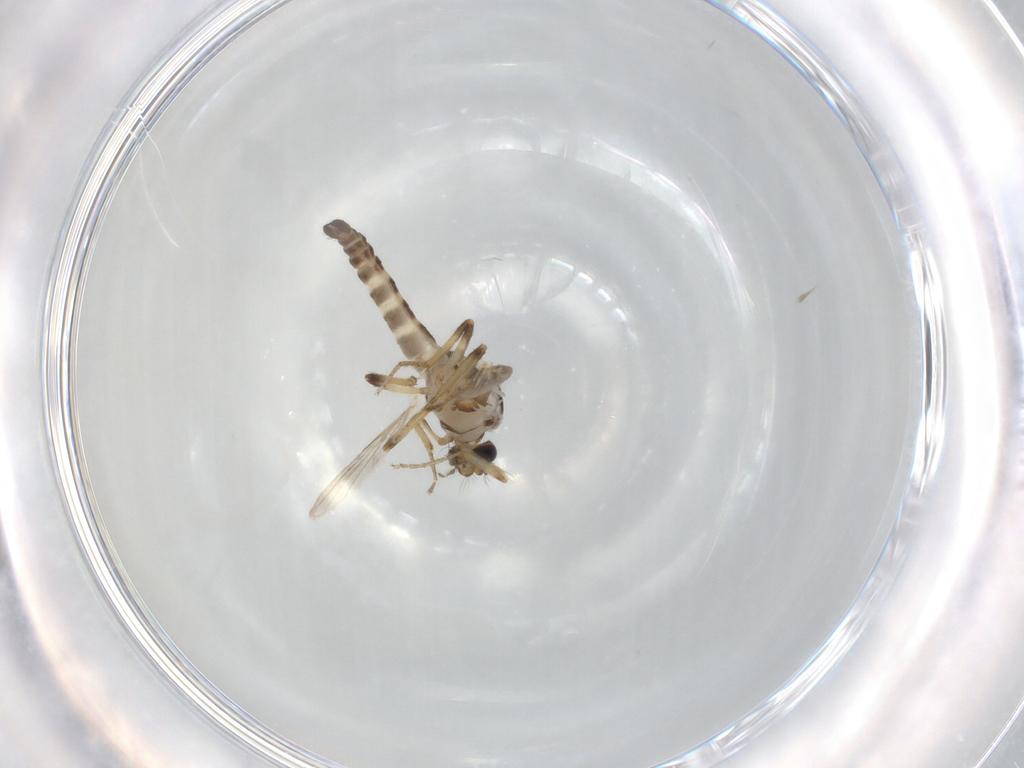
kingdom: Animalia
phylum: Arthropoda
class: Insecta
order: Diptera
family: Ceratopogonidae
